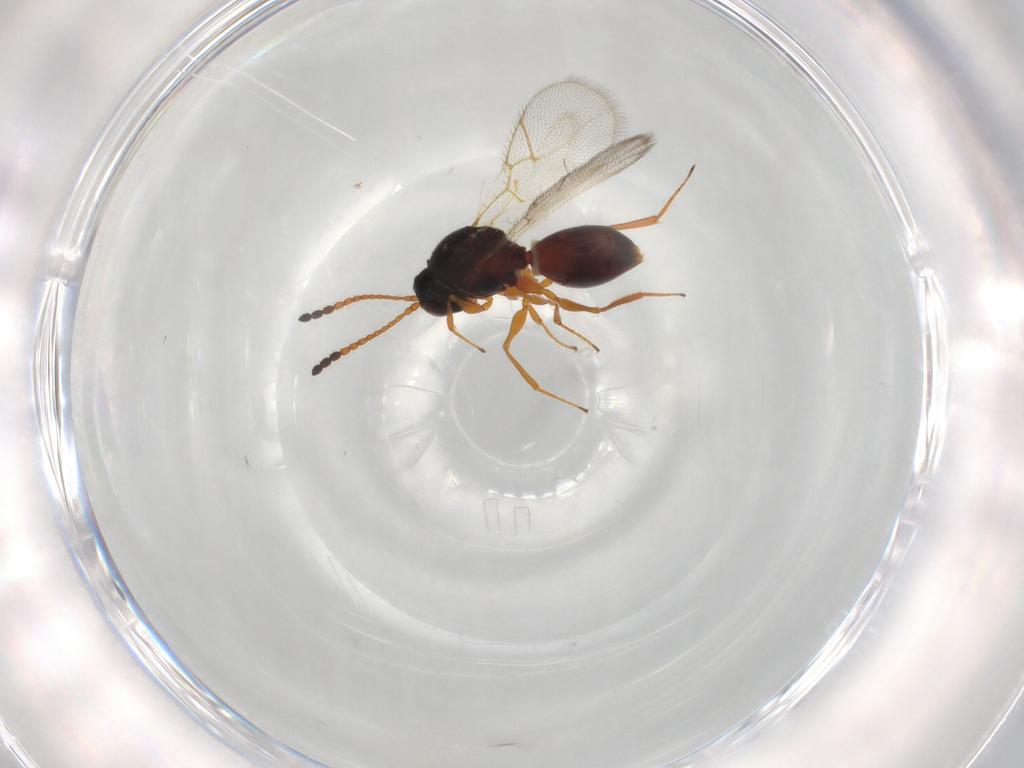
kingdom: Animalia
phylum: Arthropoda
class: Insecta
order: Hymenoptera
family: Figitidae
